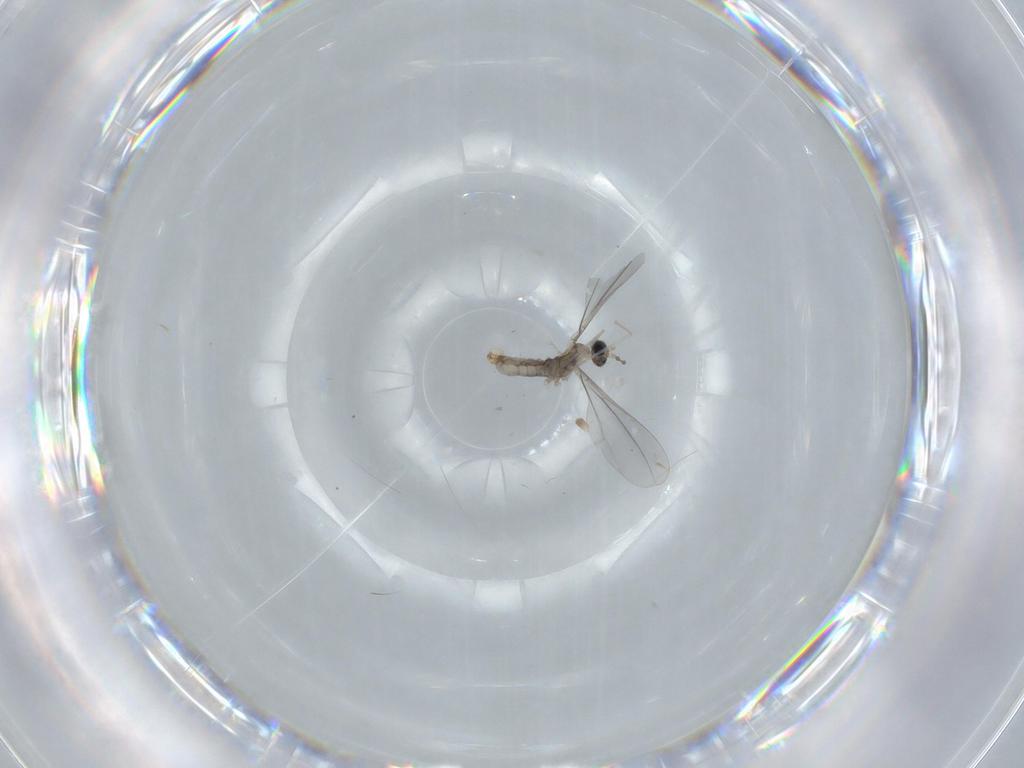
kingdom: Animalia
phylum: Arthropoda
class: Insecta
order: Diptera
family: Cecidomyiidae
